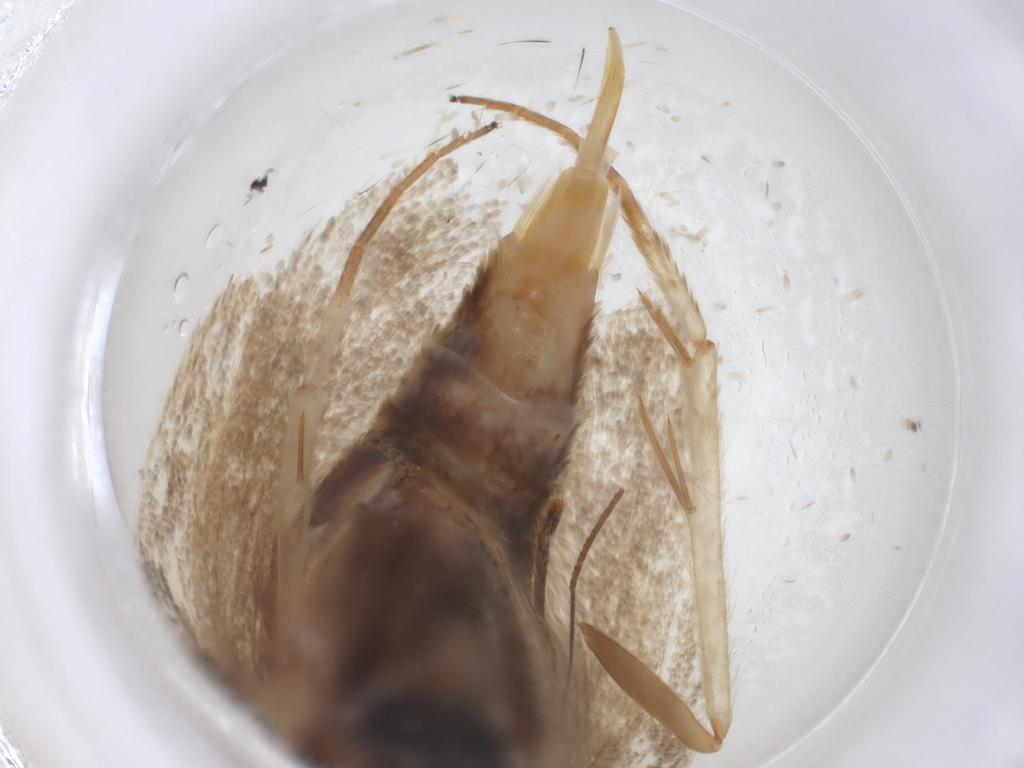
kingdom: Animalia
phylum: Arthropoda
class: Insecta
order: Lepidoptera
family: Oecophoridae
